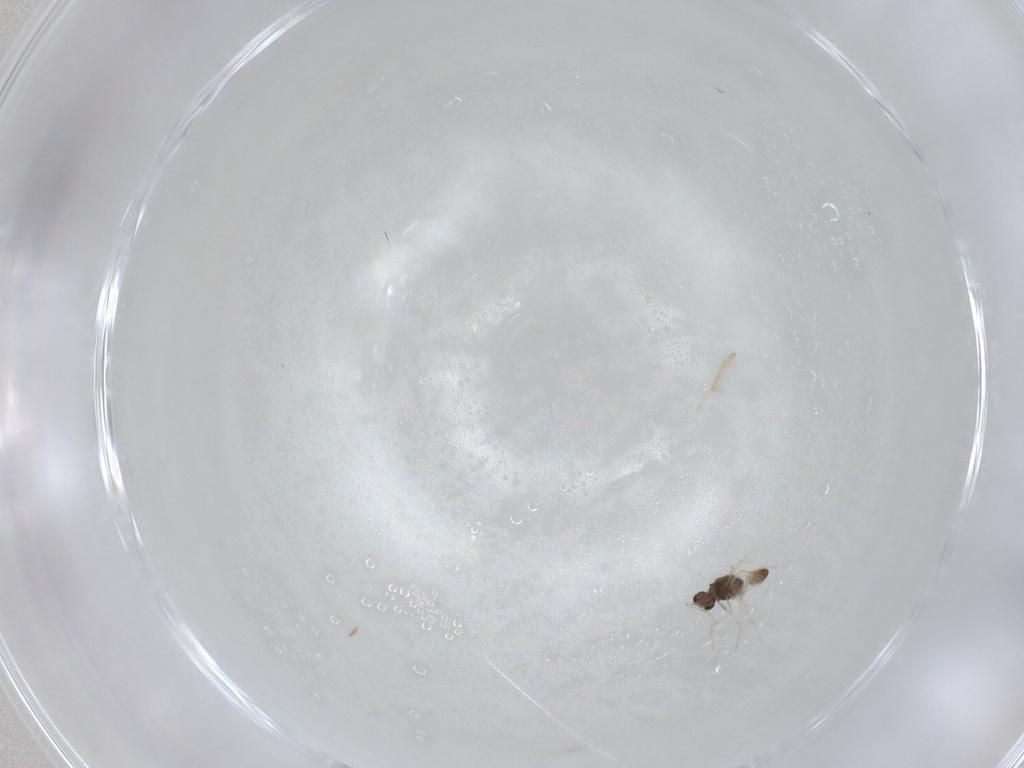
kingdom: Animalia
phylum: Arthropoda
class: Insecta
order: Diptera
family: Chironomidae
